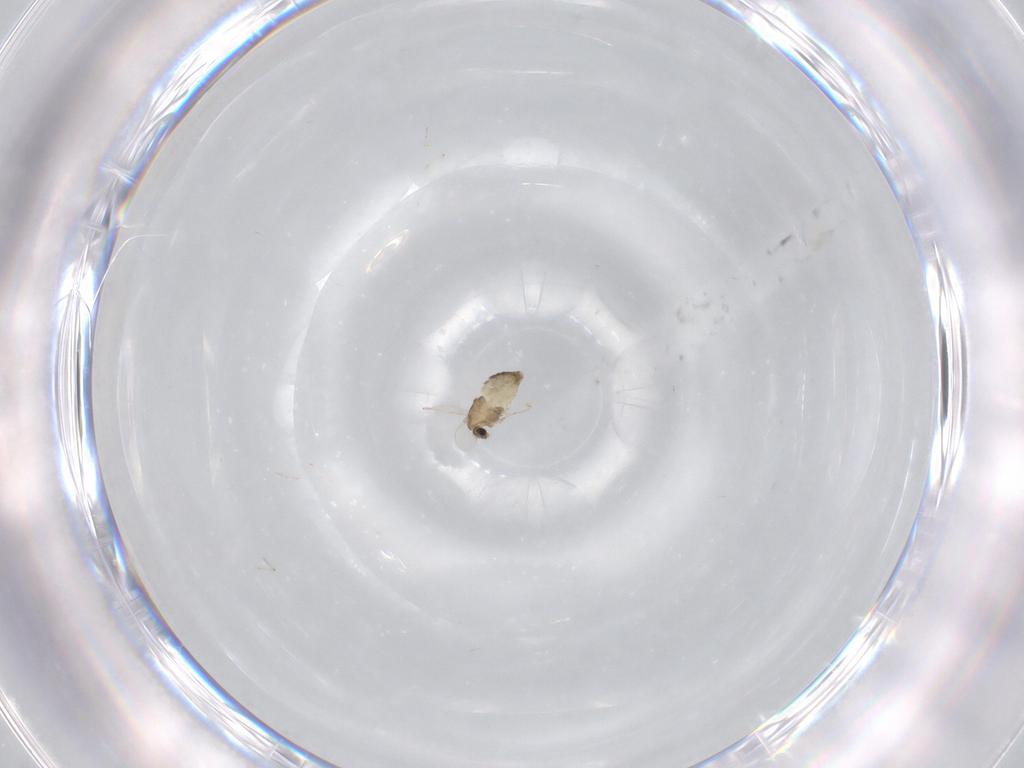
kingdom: Animalia
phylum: Arthropoda
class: Insecta
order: Diptera
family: Chironomidae
